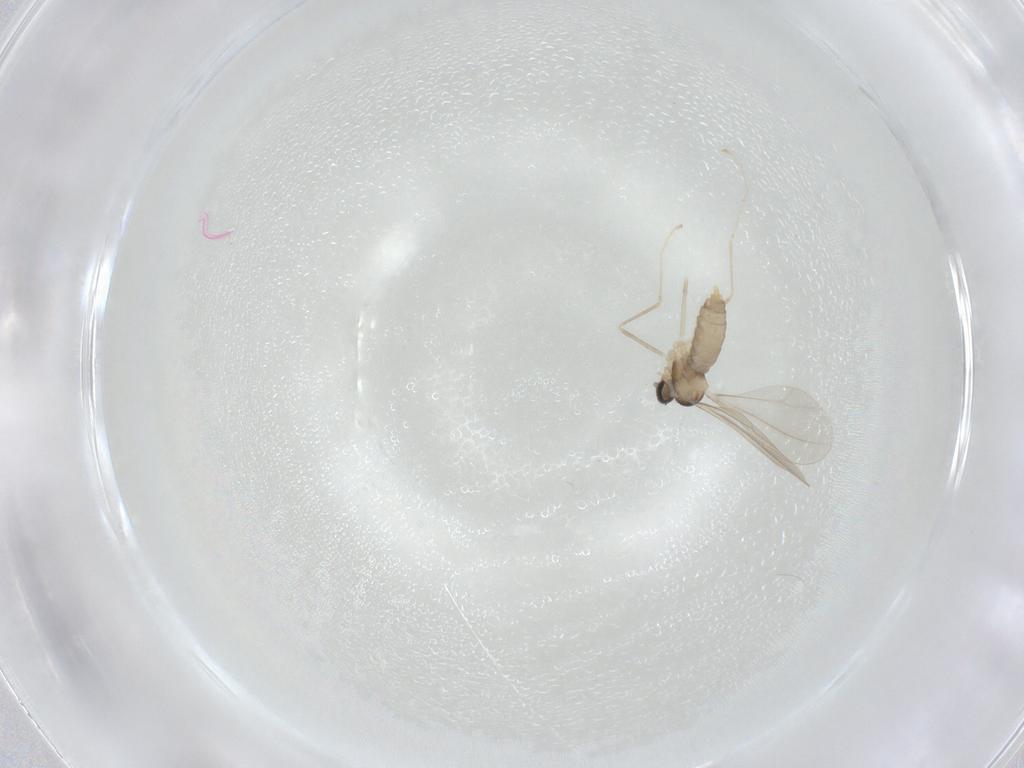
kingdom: Animalia
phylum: Arthropoda
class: Insecta
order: Diptera
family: Cecidomyiidae
